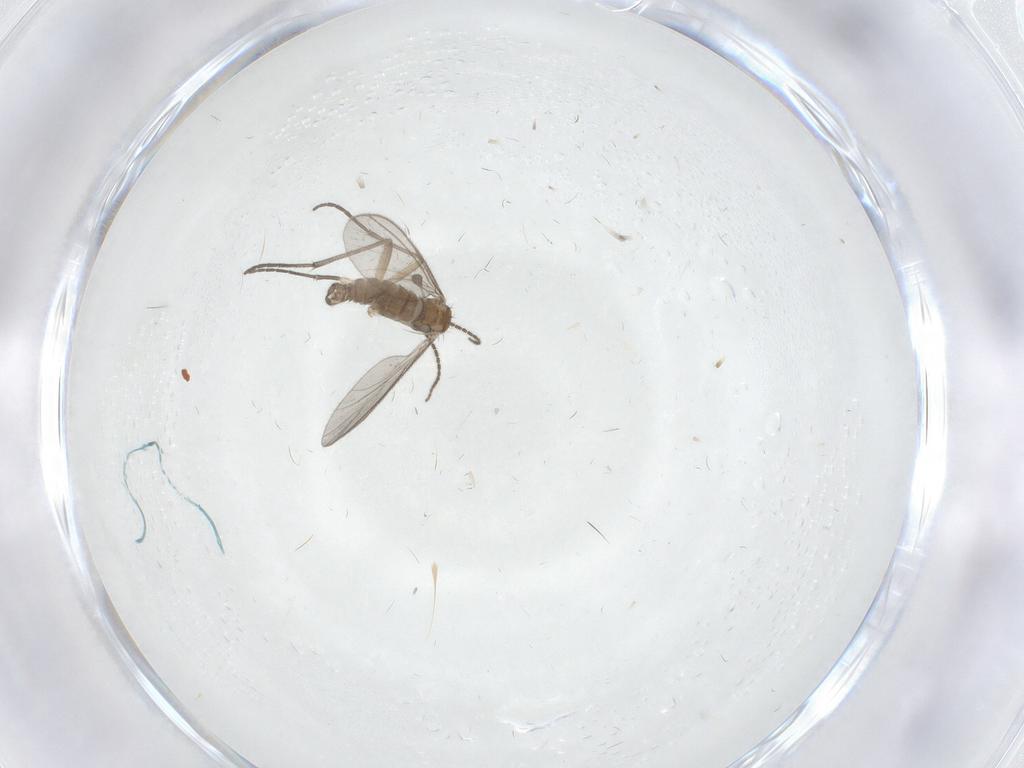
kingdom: Animalia
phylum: Arthropoda
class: Insecta
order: Diptera
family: Sciaridae
